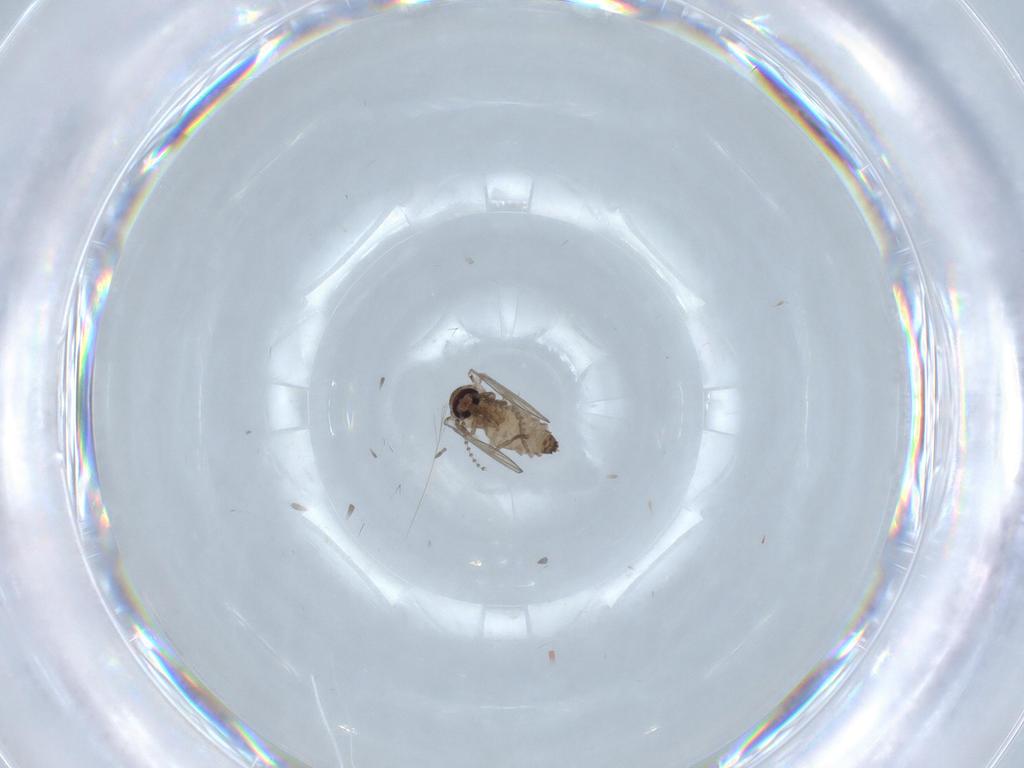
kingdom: Animalia
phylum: Arthropoda
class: Insecta
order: Diptera
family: Psychodidae
